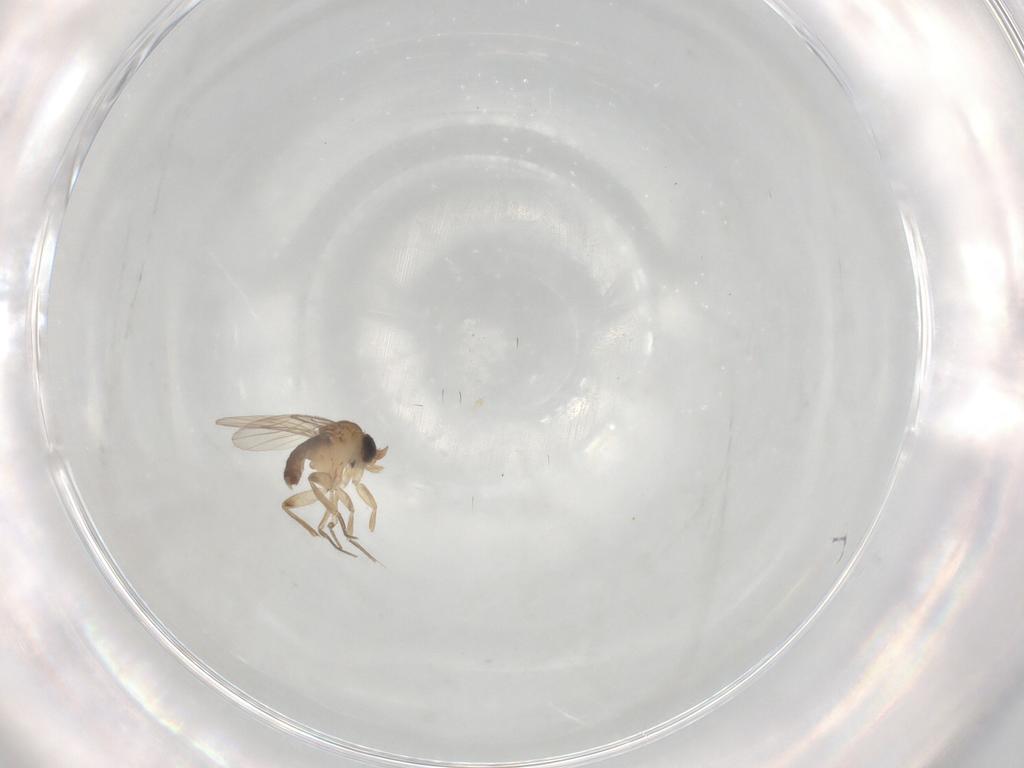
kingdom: Animalia
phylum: Arthropoda
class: Insecta
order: Diptera
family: Phoridae
